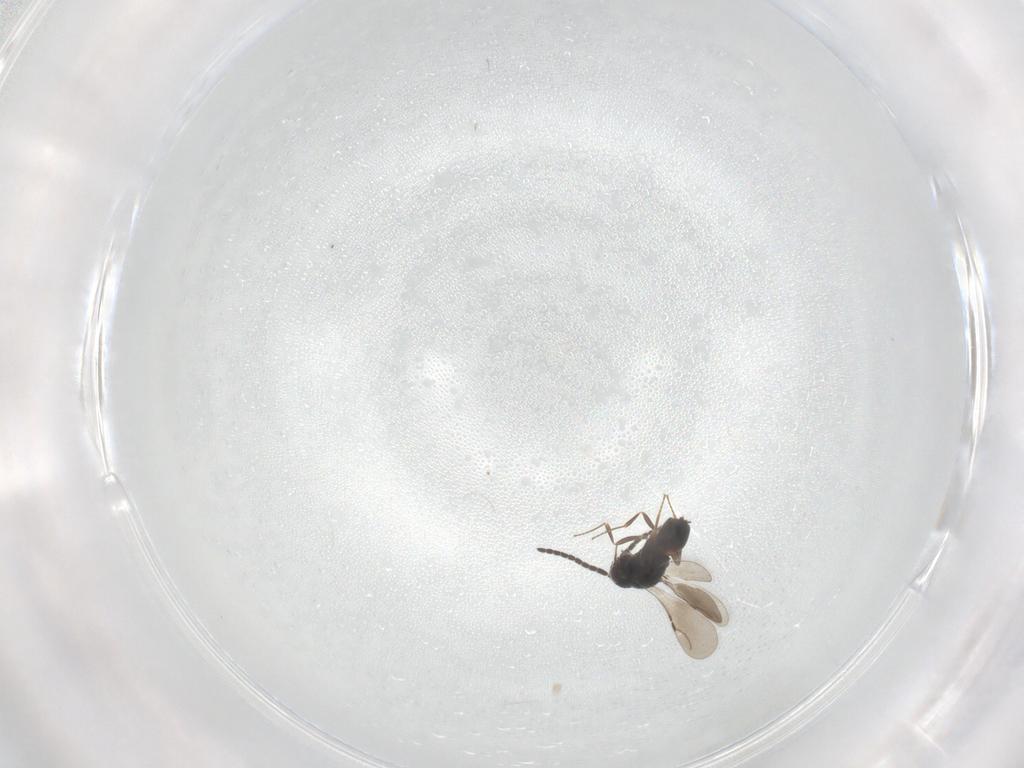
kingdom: Animalia
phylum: Arthropoda
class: Insecta
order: Hymenoptera
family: Ceraphronidae
